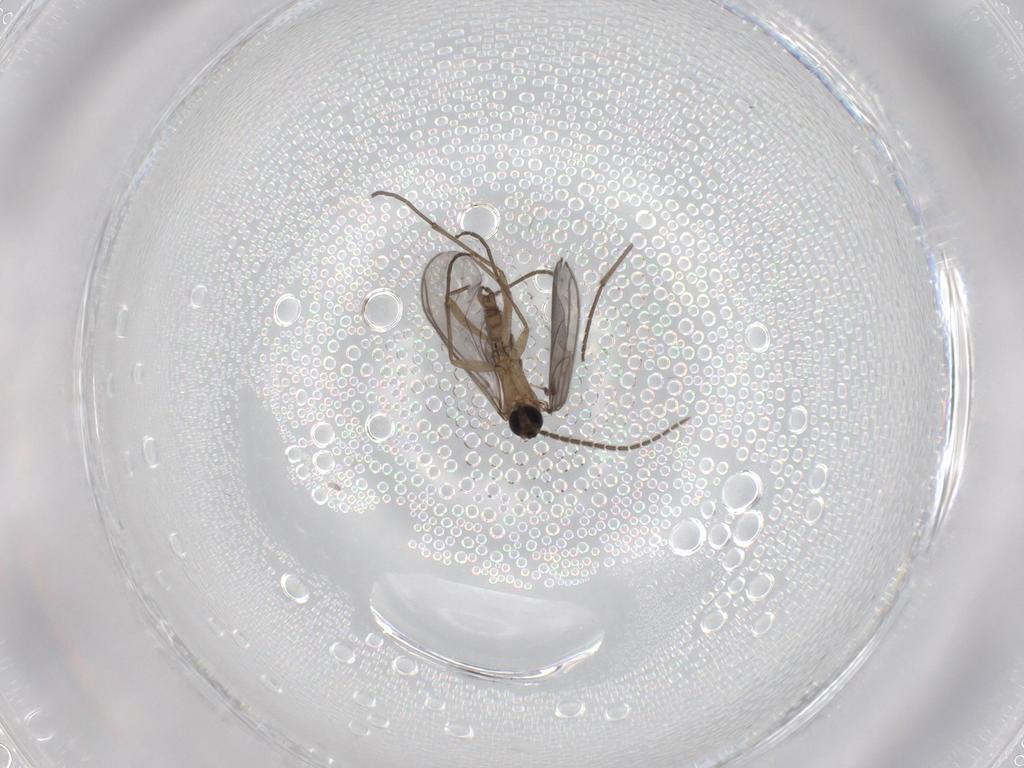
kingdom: Animalia
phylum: Arthropoda
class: Insecta
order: Diptera
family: Sciaridae
